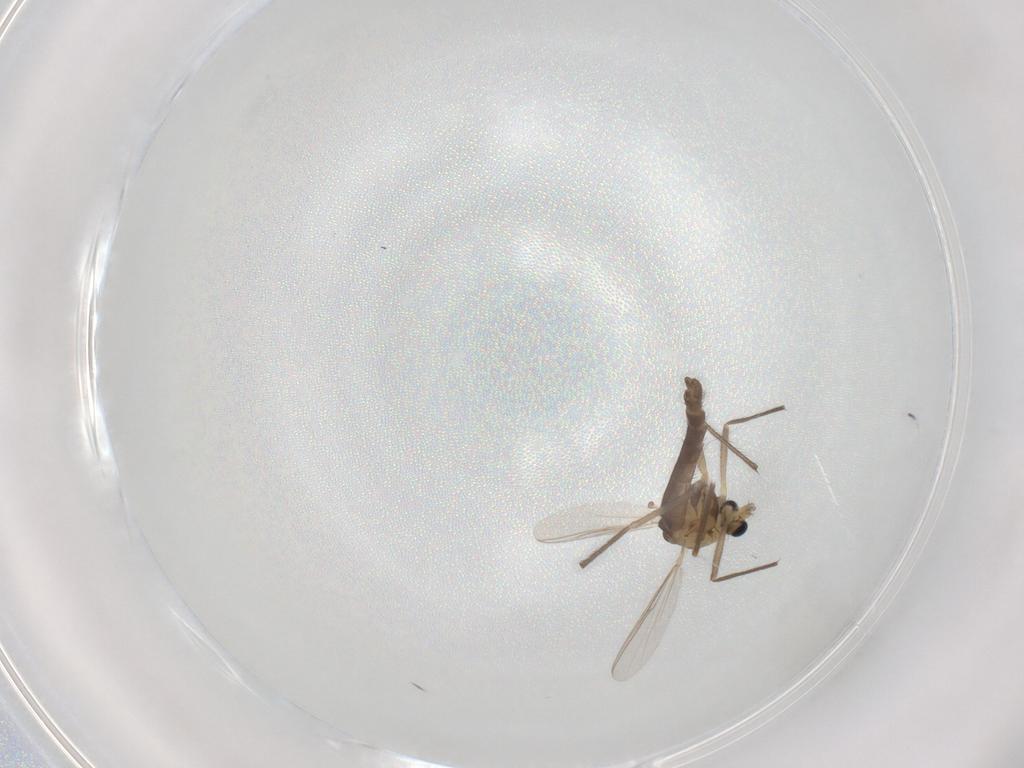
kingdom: Animalia
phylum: Arthropoda
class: Insecta
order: Diptera
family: Chironomidae
